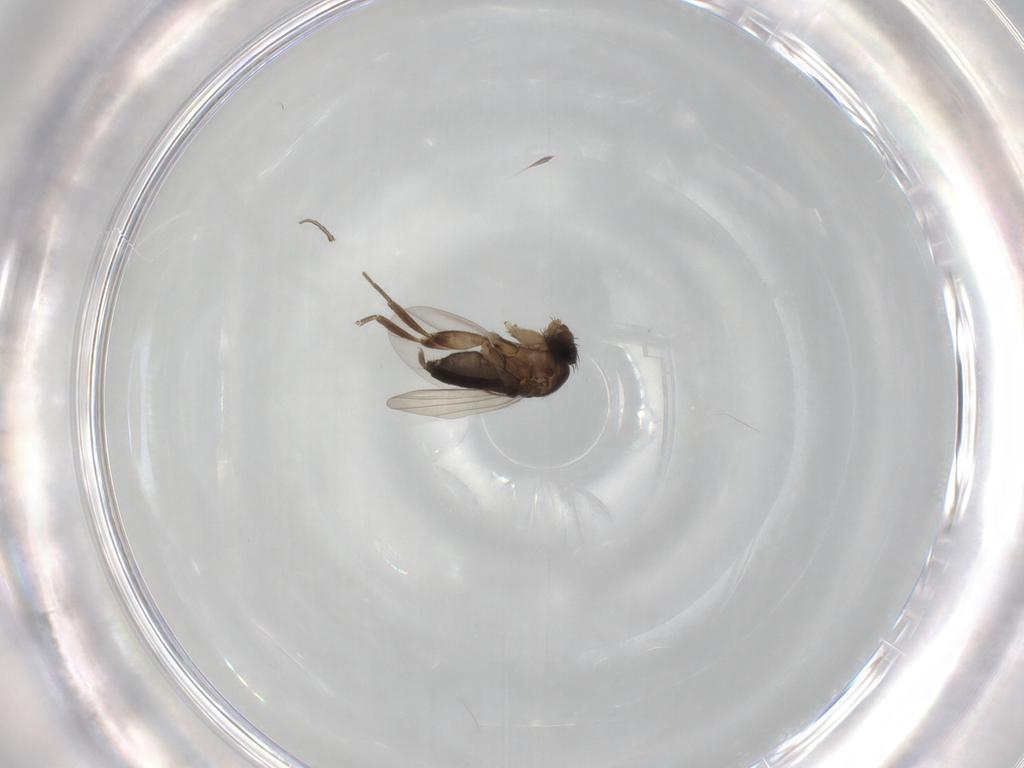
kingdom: Animalia
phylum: Arthropoda
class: Insecta
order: Diptera
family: Phoridae
